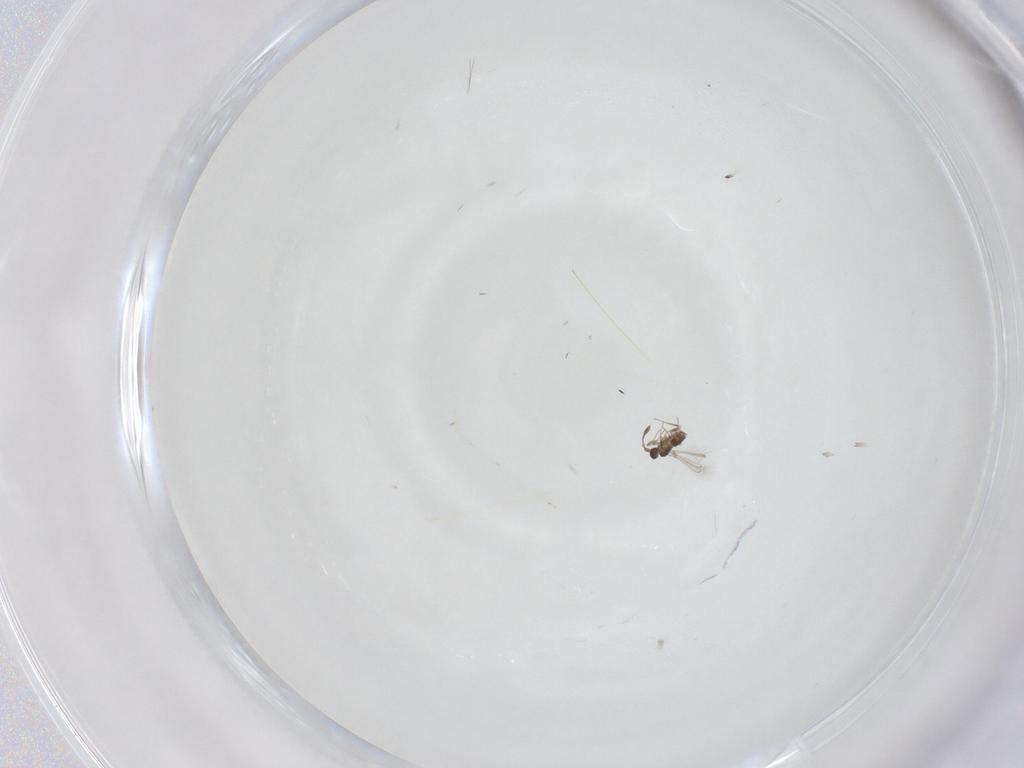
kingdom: Animalia
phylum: Arthropoda
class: Insecta
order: Hymenoptera
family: Mymaridae
